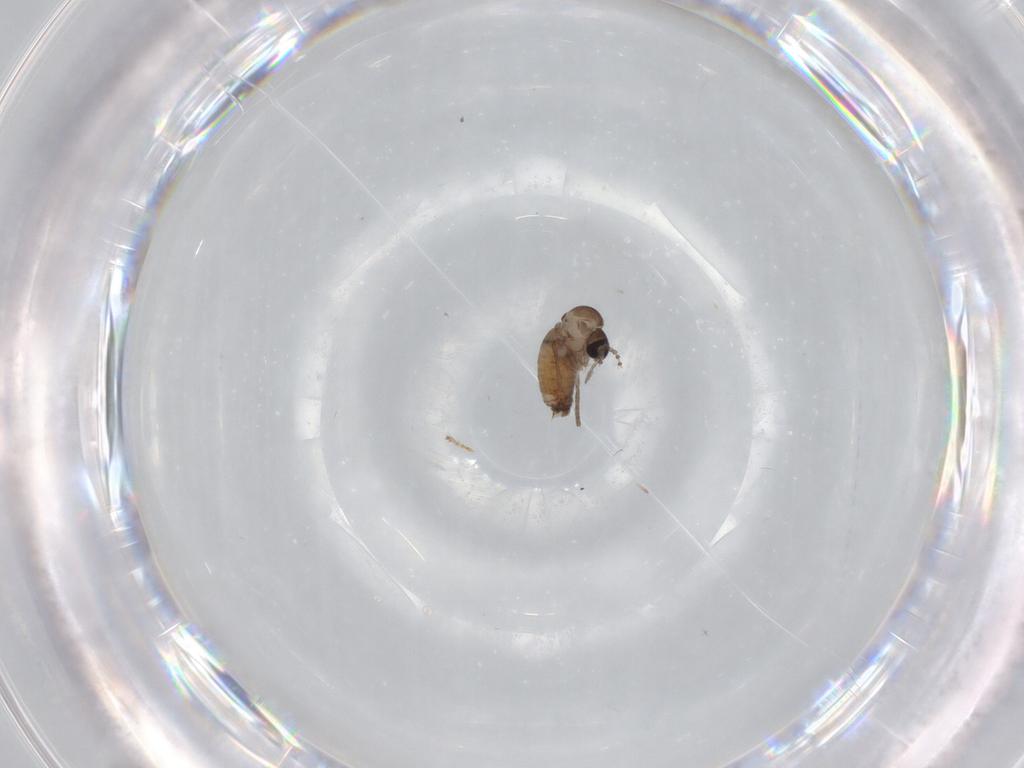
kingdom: Animalia
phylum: Arthropoda
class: Insecta
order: Diptera
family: Psychodidae
